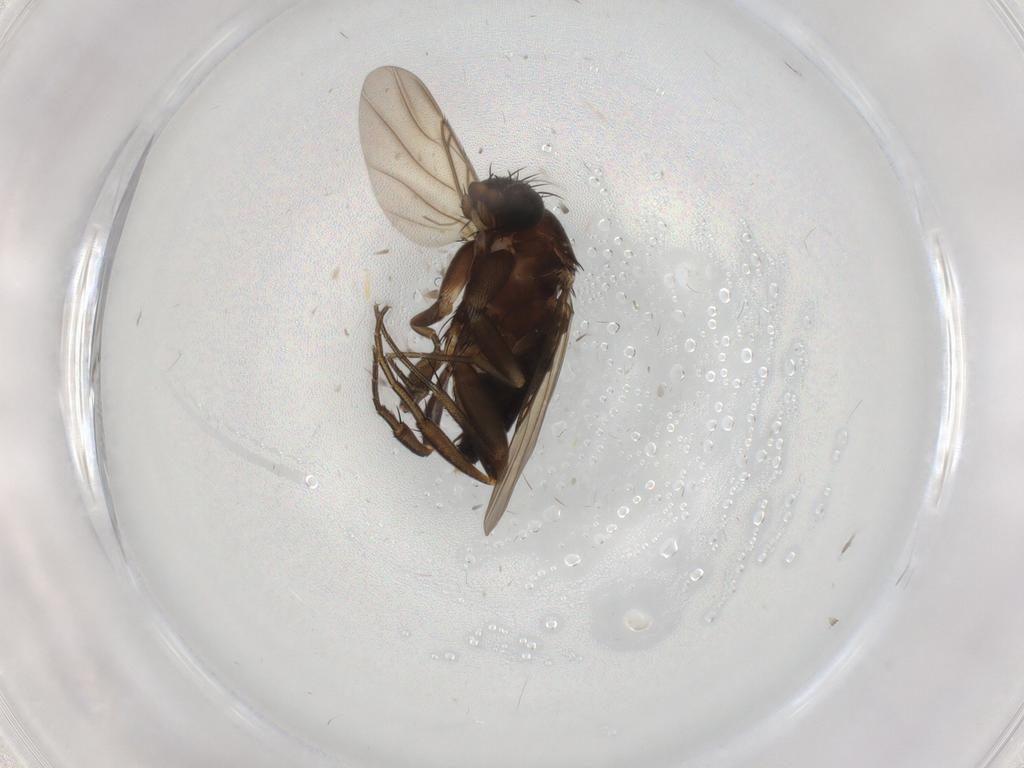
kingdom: Animalia
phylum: Arthropoda
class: Insecta
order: Diptera
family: Phoridae
